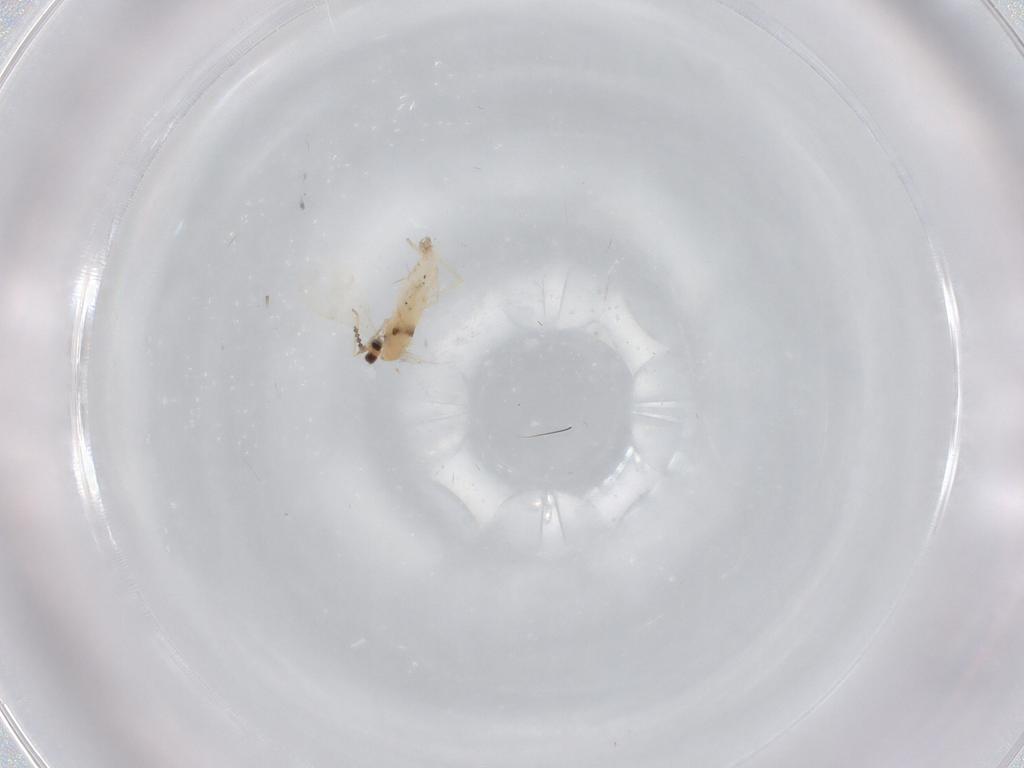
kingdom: Animalia
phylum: Arthropoda
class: Insecta
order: Diptera
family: Cecidomyiidae
